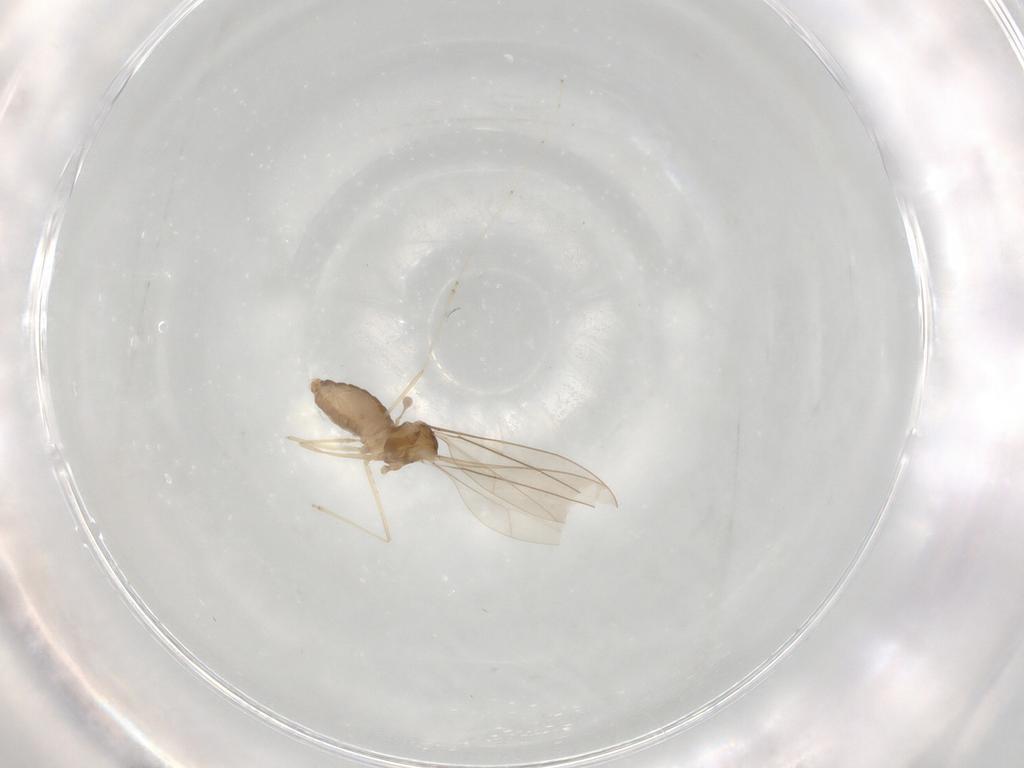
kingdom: Animalia
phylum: Arthropoda
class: Insecta
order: Diptera
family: Cecidomyiidae
